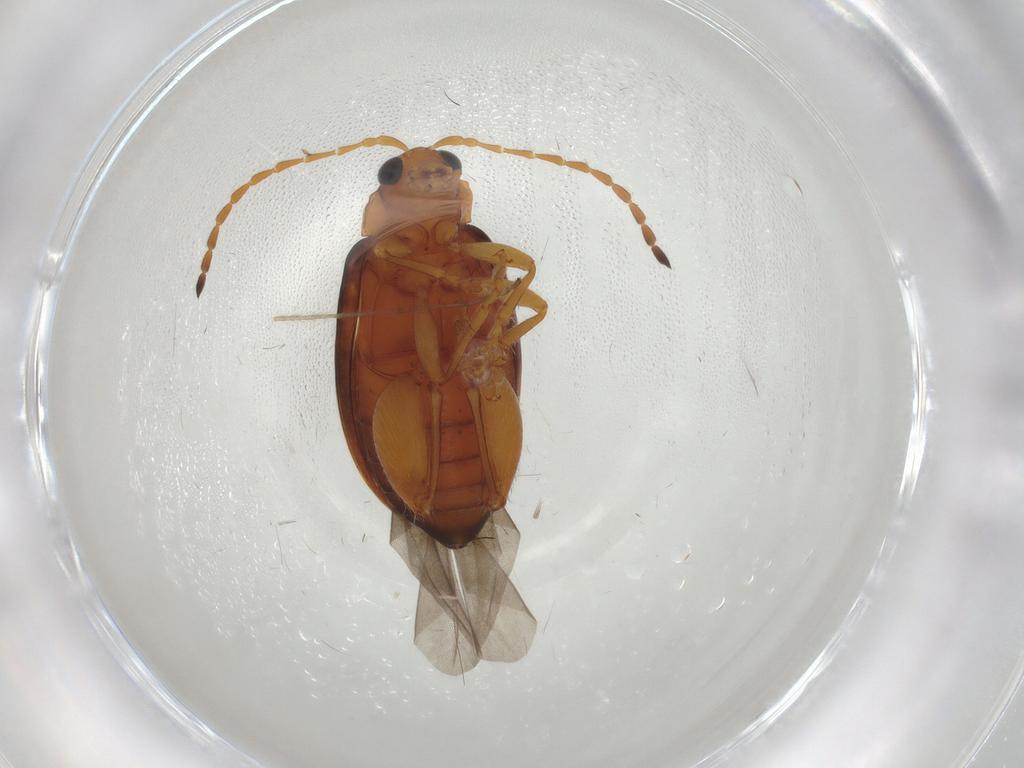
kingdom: Animalia
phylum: Arthropoda
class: Insecta
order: Coleoptera
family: Chrysomelidae
